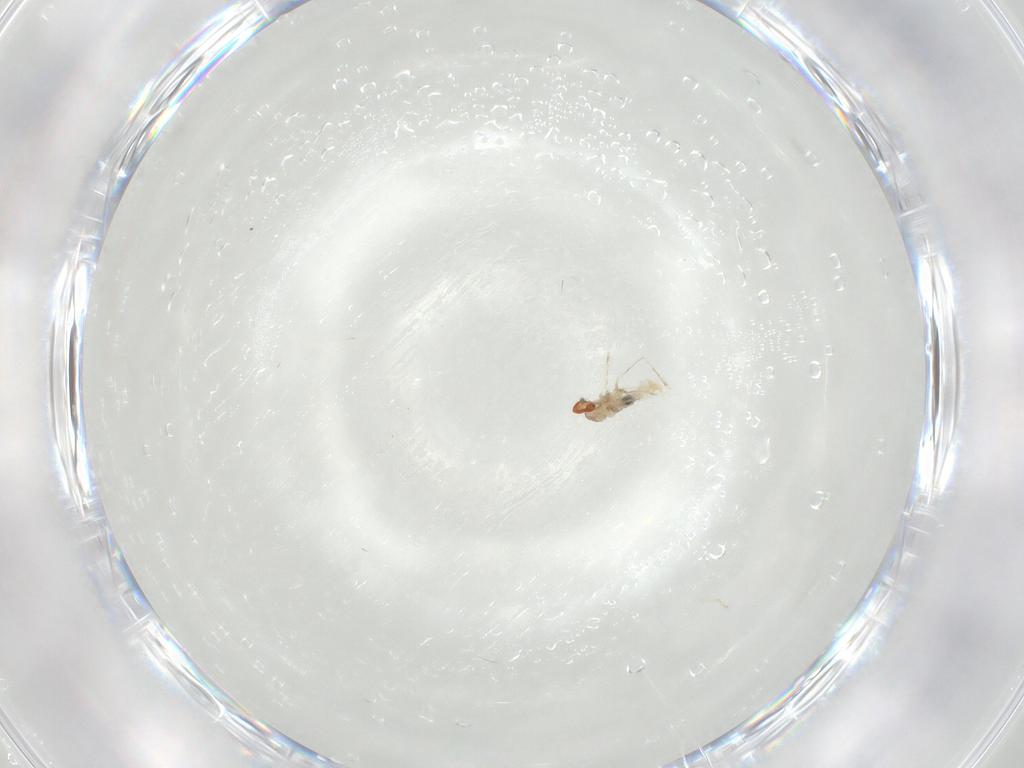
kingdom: Animalia
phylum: Arthropoda
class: Insecta
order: Diptera
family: Cecidomyiidae
